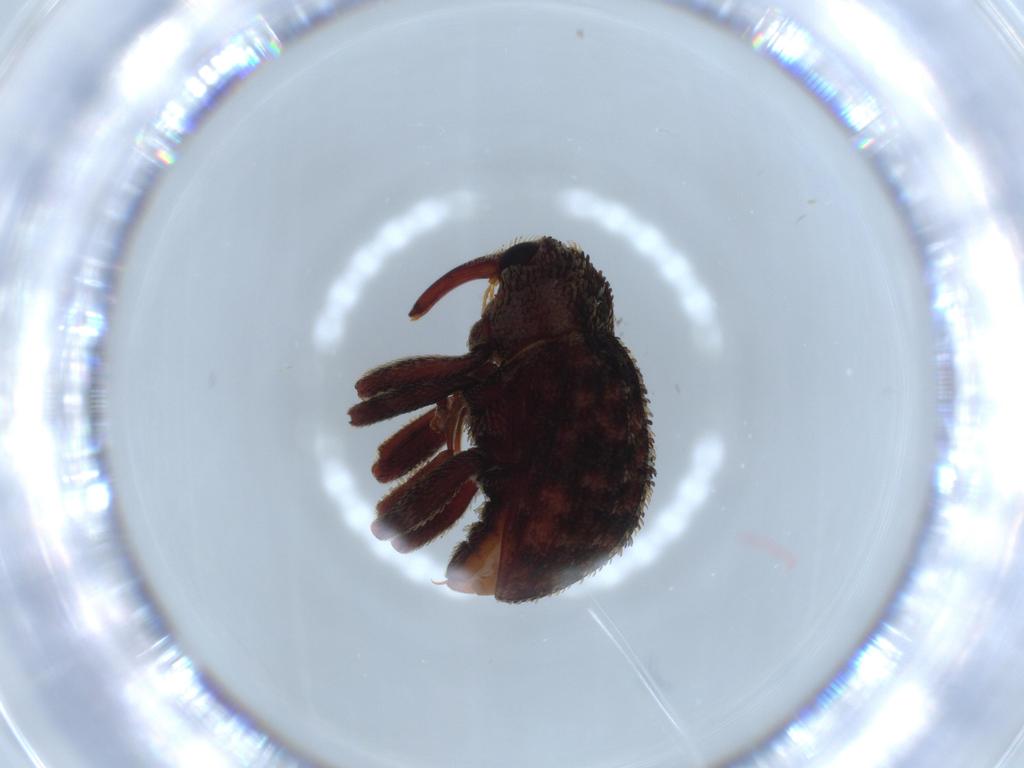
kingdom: Animalia
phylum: Arthropoda
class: Insecta
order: Coleoptera
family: Curculionidae
